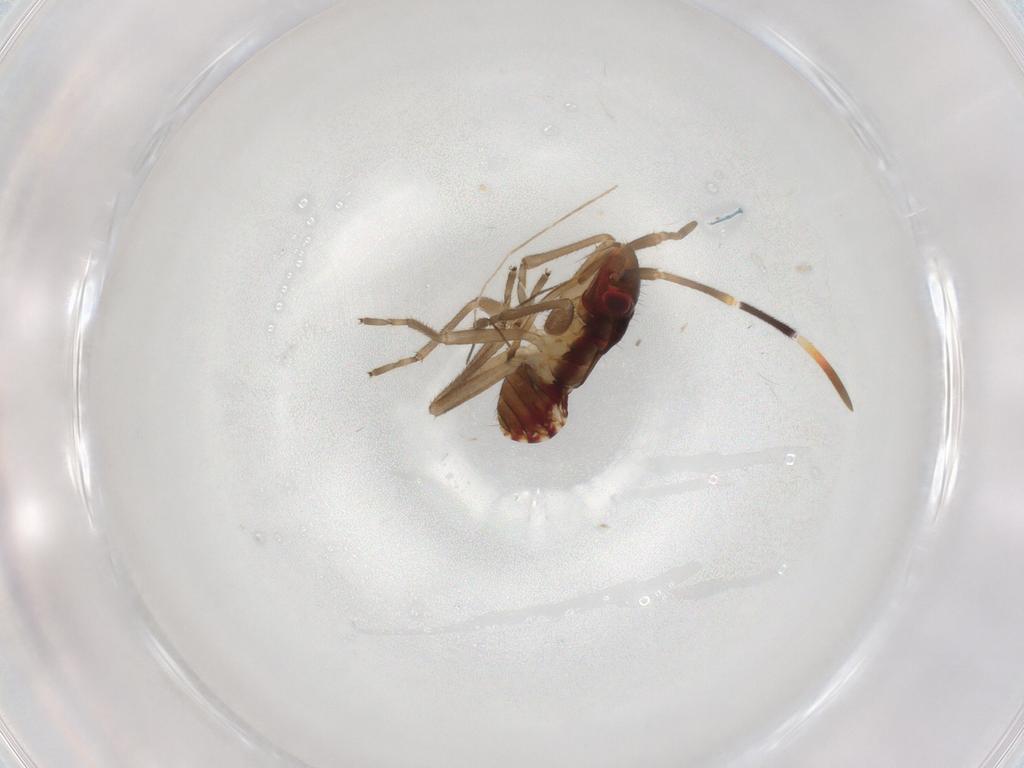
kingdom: Animalia
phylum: Arthropoda
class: Insecta
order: Hemiptera
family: Rhyparochromidae
